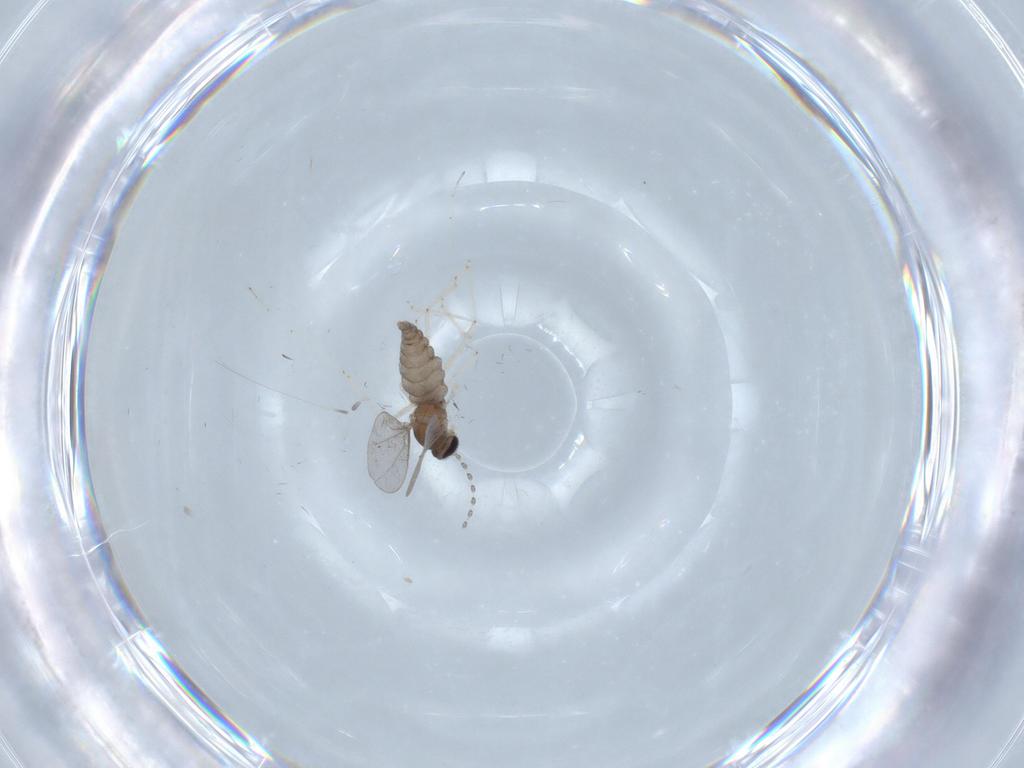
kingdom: Animalia
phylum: Arthropoda
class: Insecta
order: Diptera
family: Cecidomyiidae
